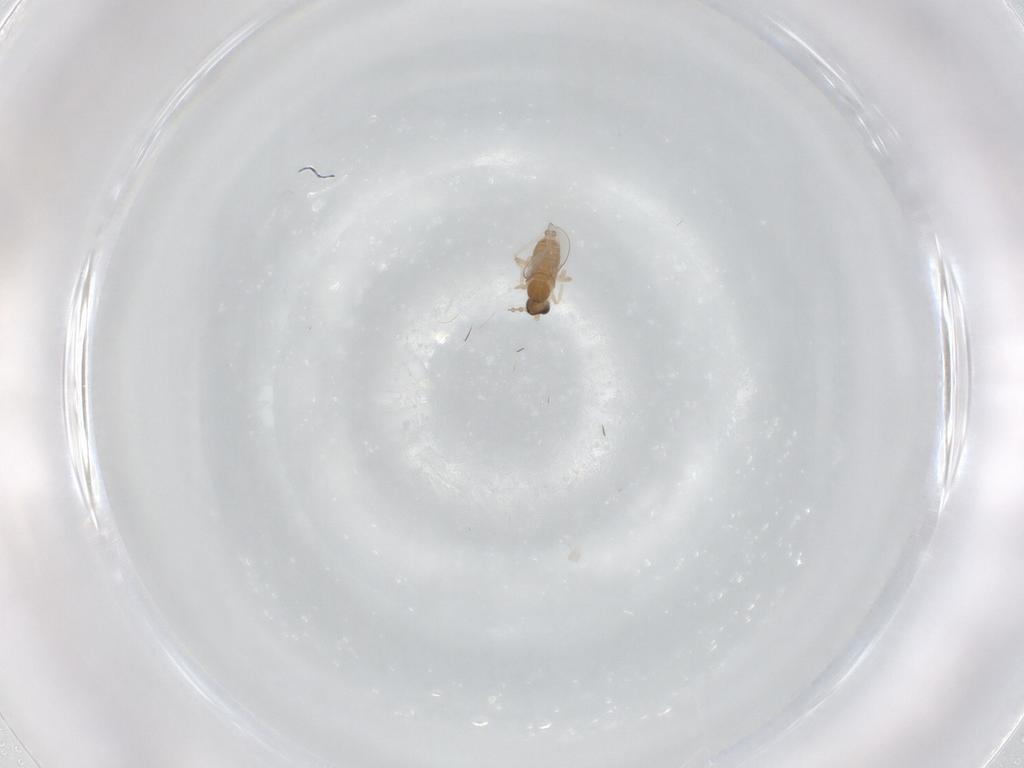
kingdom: Animalia
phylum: Arthropoda
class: Insecta
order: Diptera
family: Cecidomyiidae
